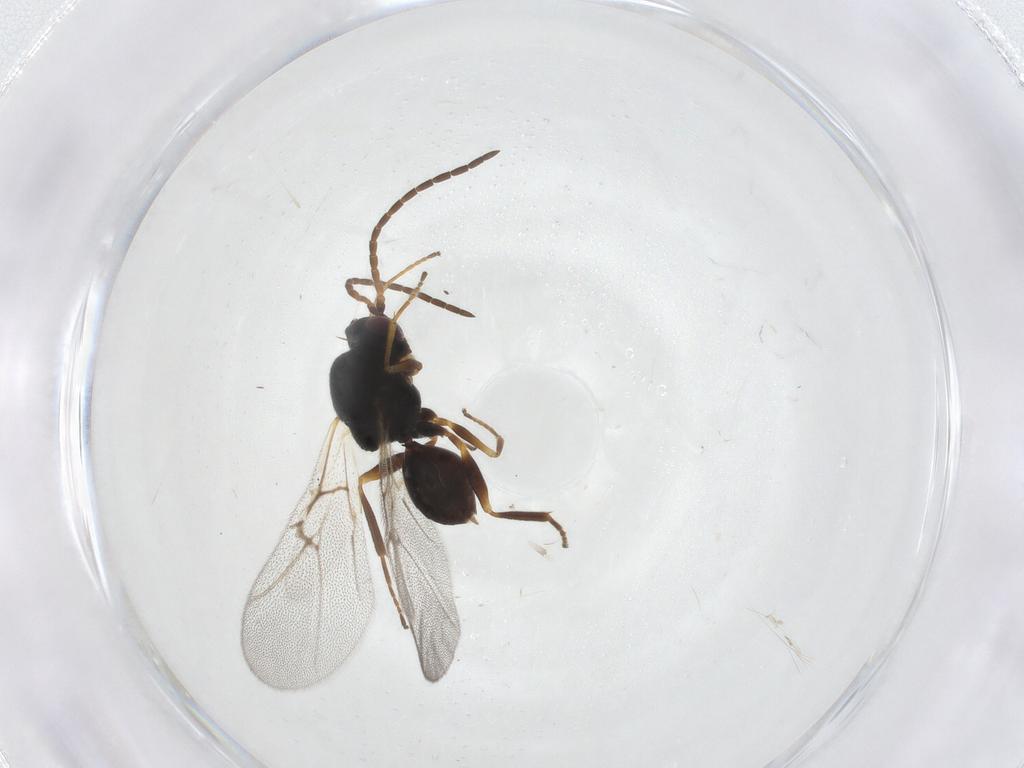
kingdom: Animalia
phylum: Arthropoda
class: Insecta
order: Hymenoptera
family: Cynipidae
